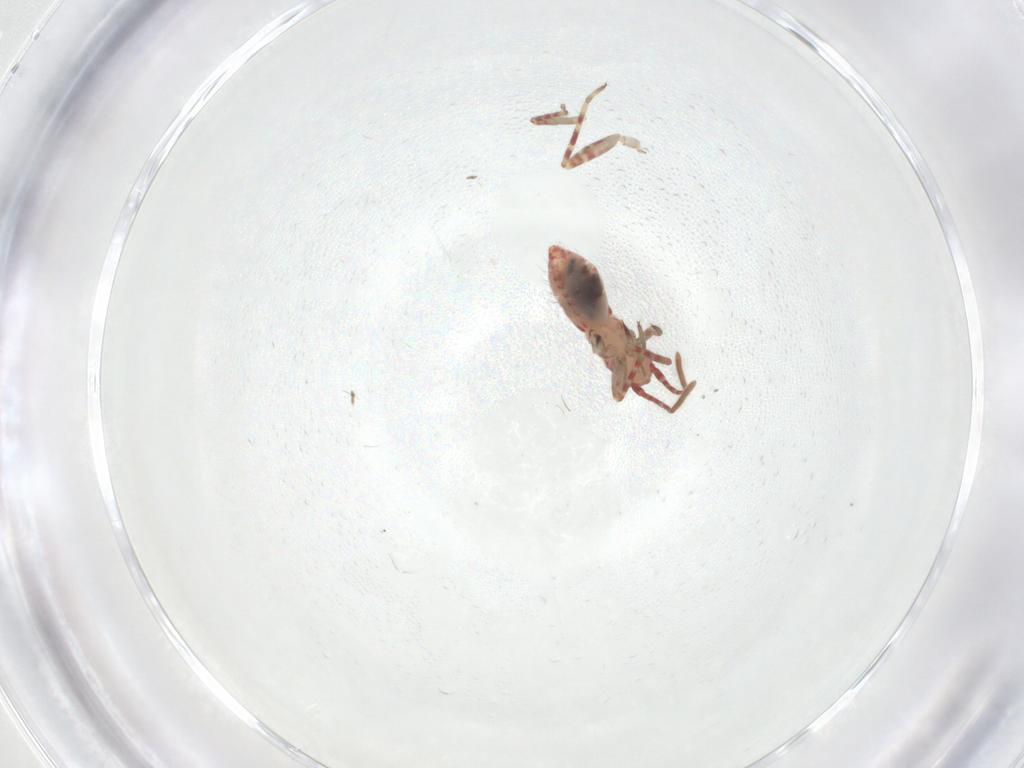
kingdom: Animalia
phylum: Arthropoda
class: Insecta
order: Hemiptera
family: Miridae
